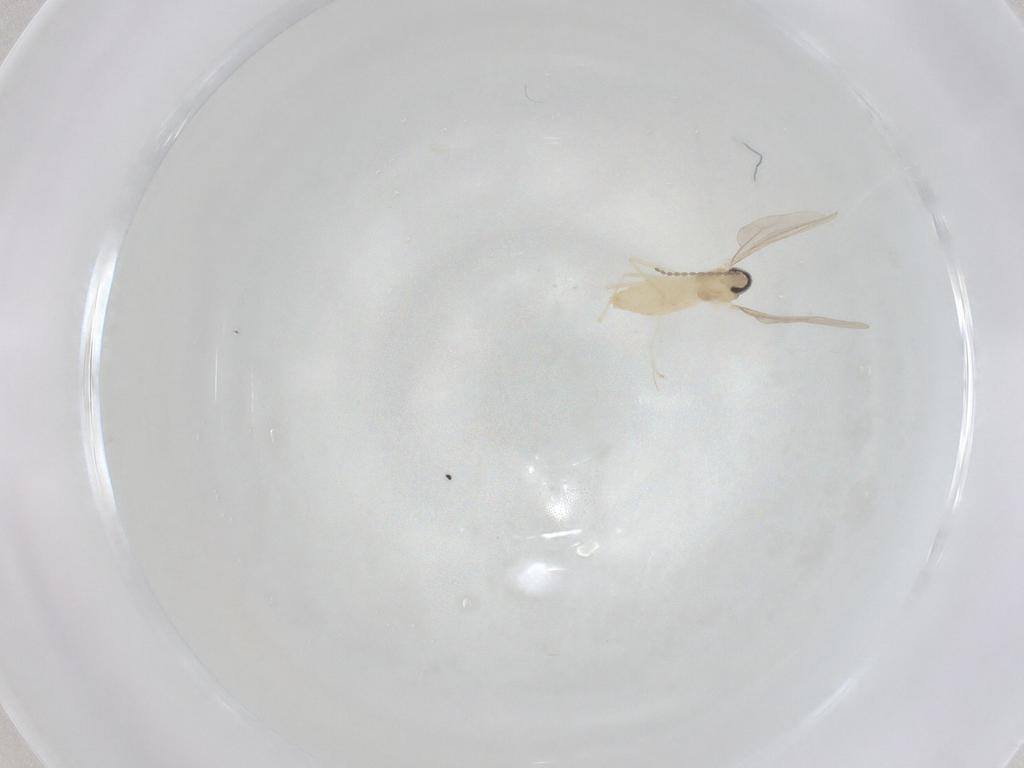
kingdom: Animalia
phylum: Arthropoda
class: Insecta
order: Diptera
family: Cecidomyiidae
